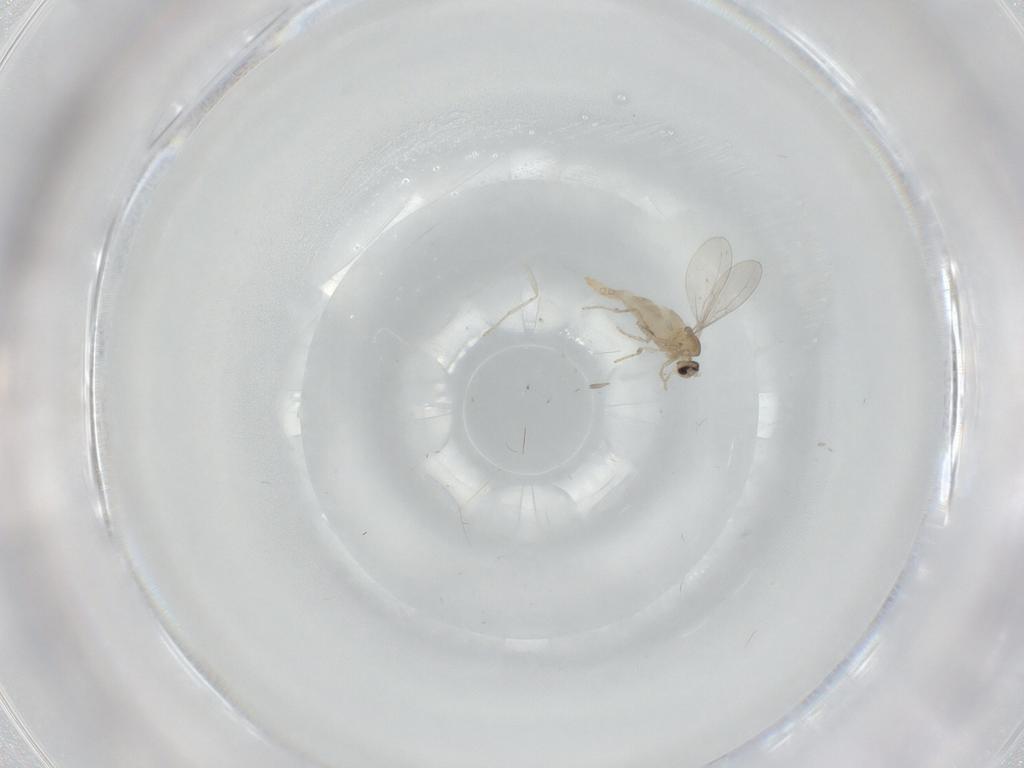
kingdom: Animalia
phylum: Arthropoda
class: Insecta
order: Diptera
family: Cecidomyiidae
